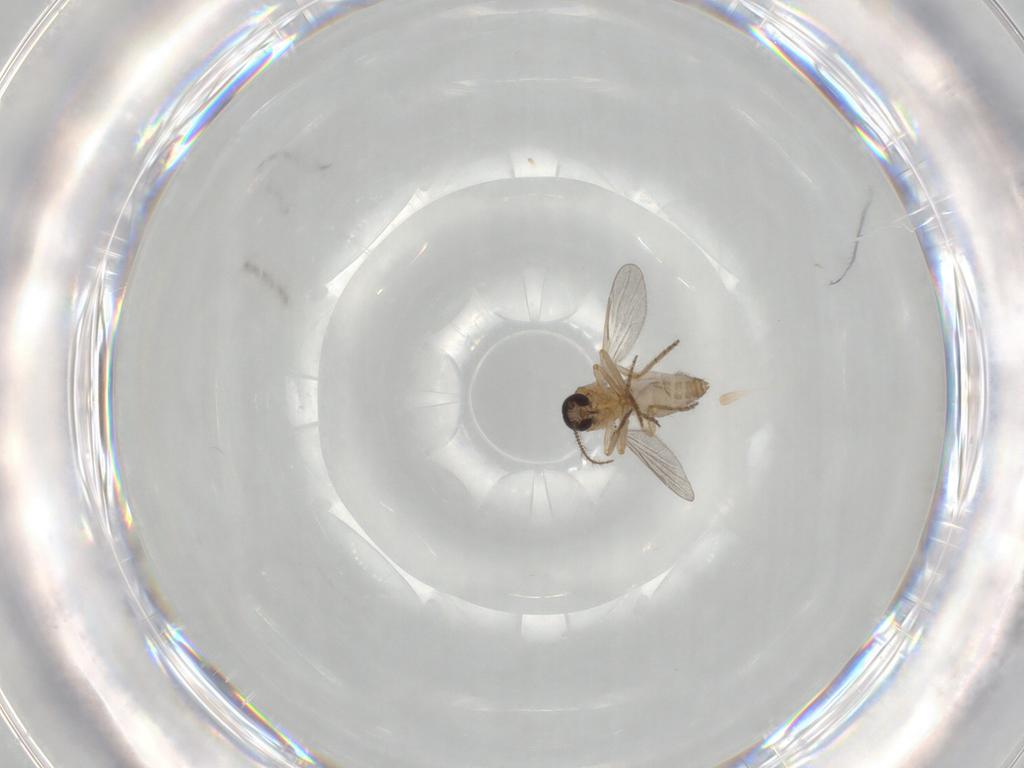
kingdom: Animalia
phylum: Arthropoda
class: Insecta
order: Diptera
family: Ceratopogonidae
